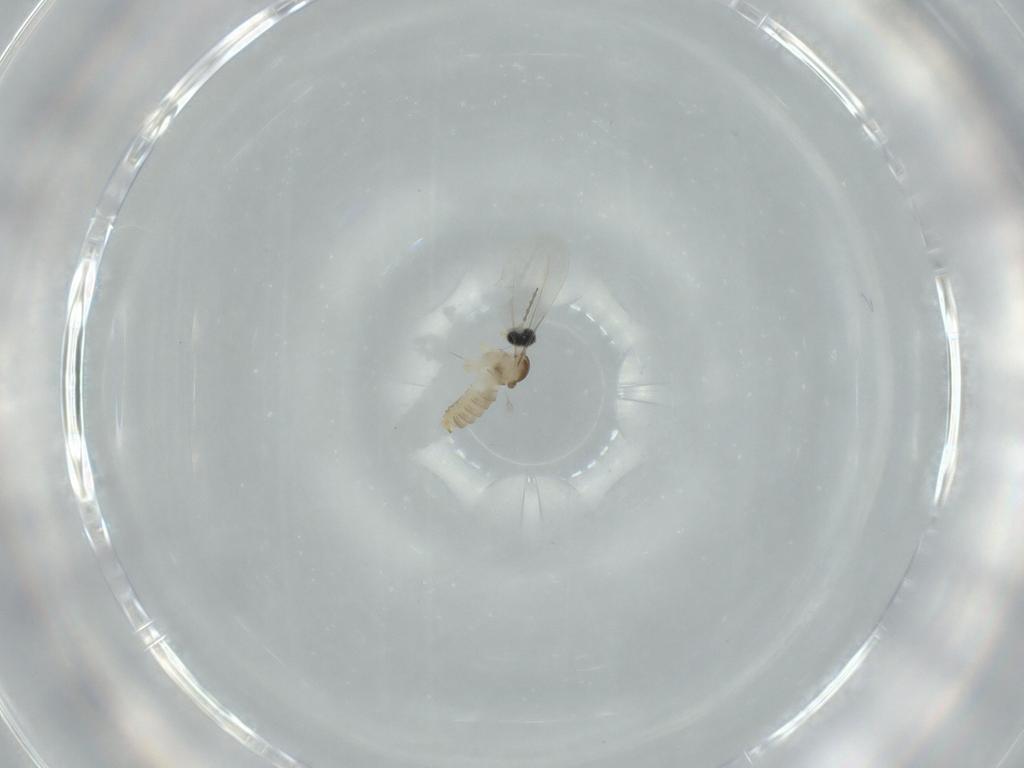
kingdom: Animalia
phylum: Arthropoda
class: Insecta
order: Diptera
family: Cecidomyiidae
